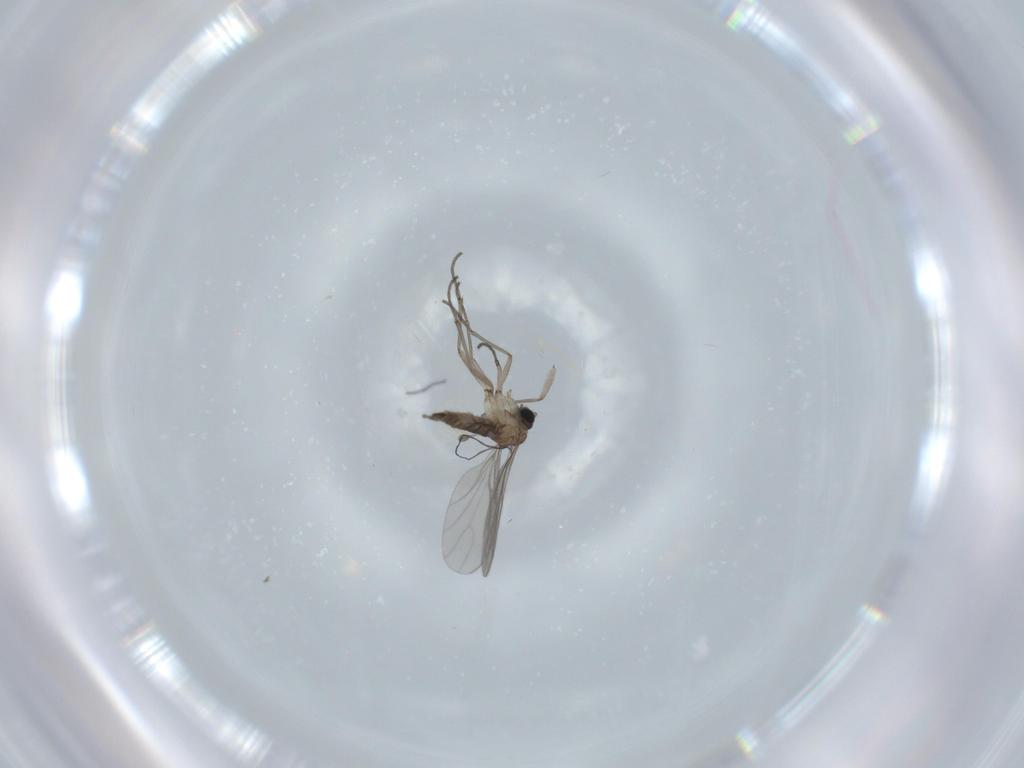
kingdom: Animalia
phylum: Arthropoda
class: Insecta
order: Diptera
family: Sciaridae
